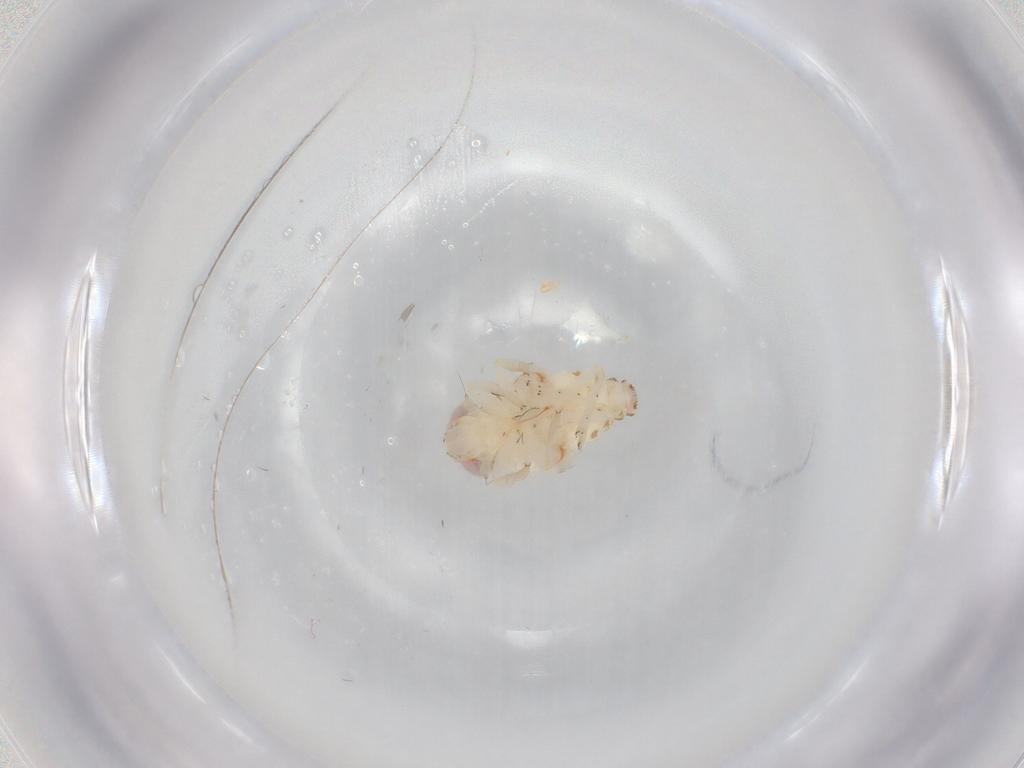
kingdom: Animalia
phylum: Arthropoda
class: Insecta
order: Hemiptera
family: Nogodinidae
